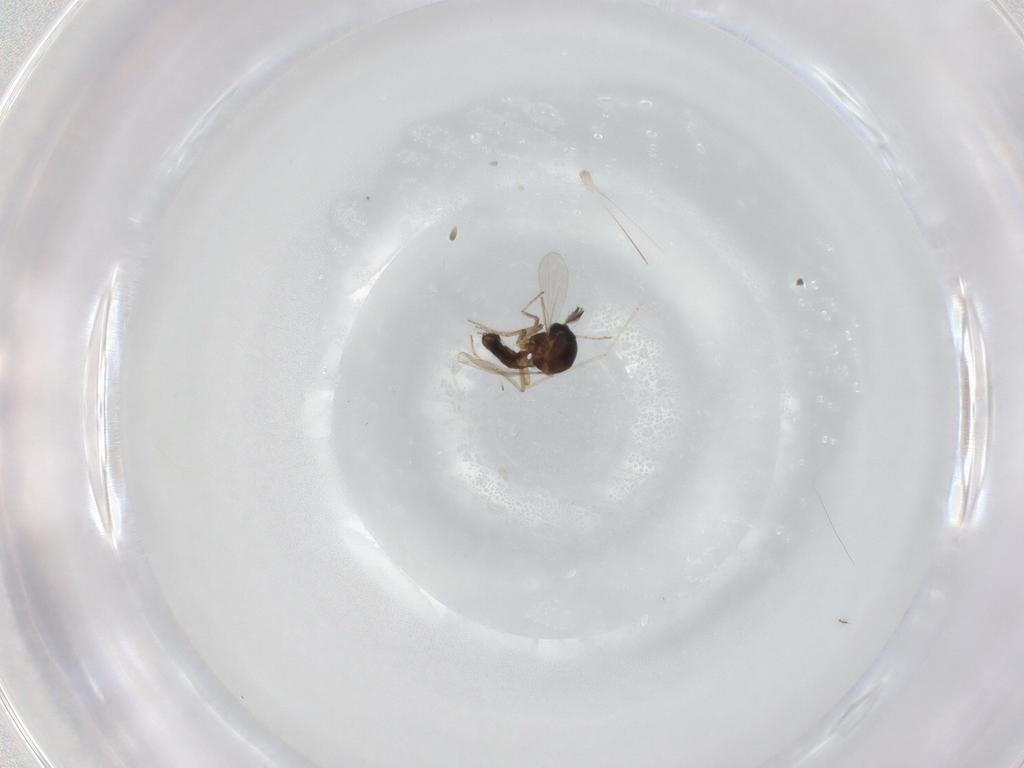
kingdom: Animalia
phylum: Arthropoda
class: Insecta
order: Diptera
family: Ceratopogonidae
